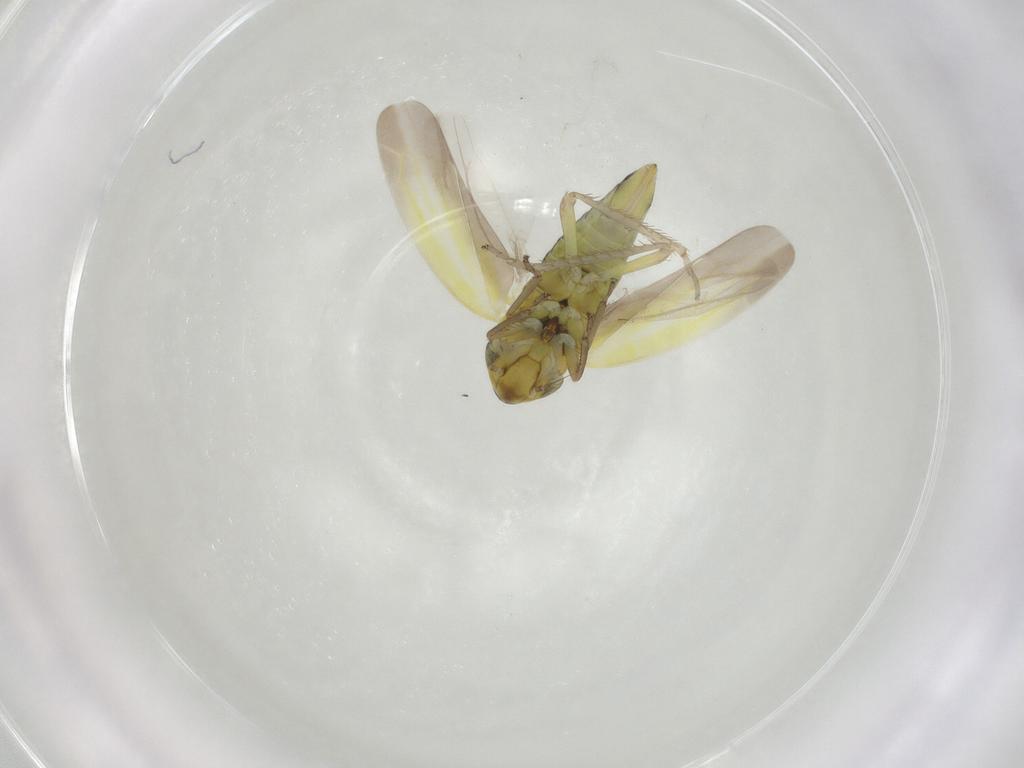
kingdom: Animalia
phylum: Arthropoda
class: Insecta
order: Hemiptera
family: Cicadellidae
